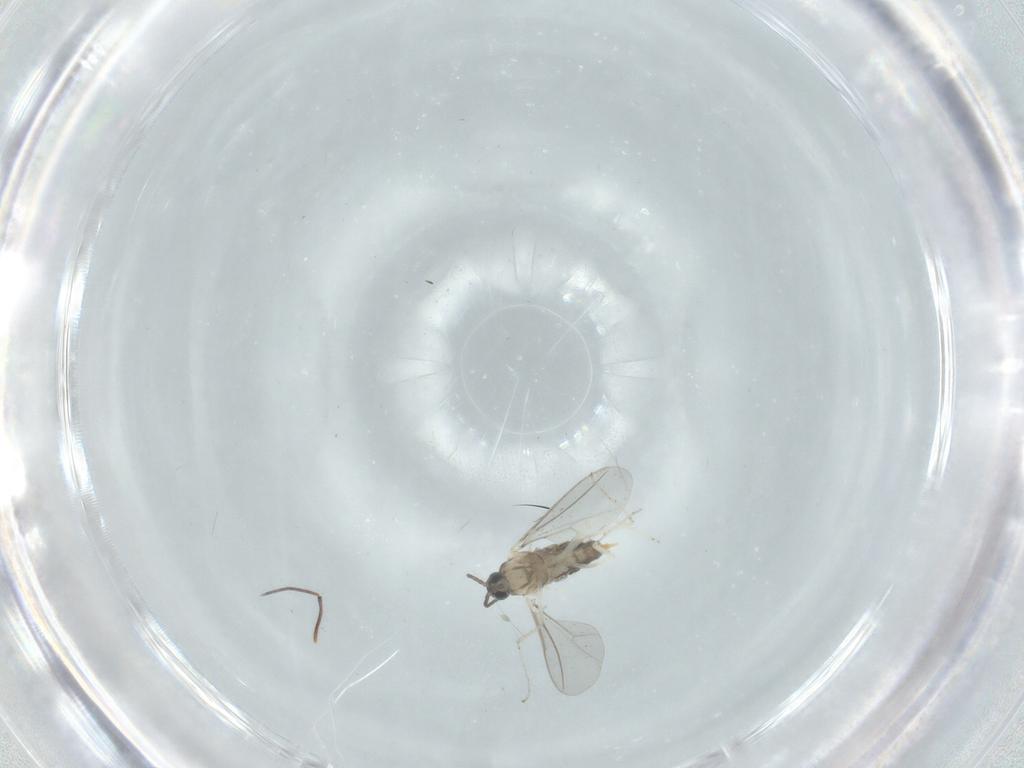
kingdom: Animalia
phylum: Arthropoda
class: Insecta
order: Diptera
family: Cecidomyiidae
